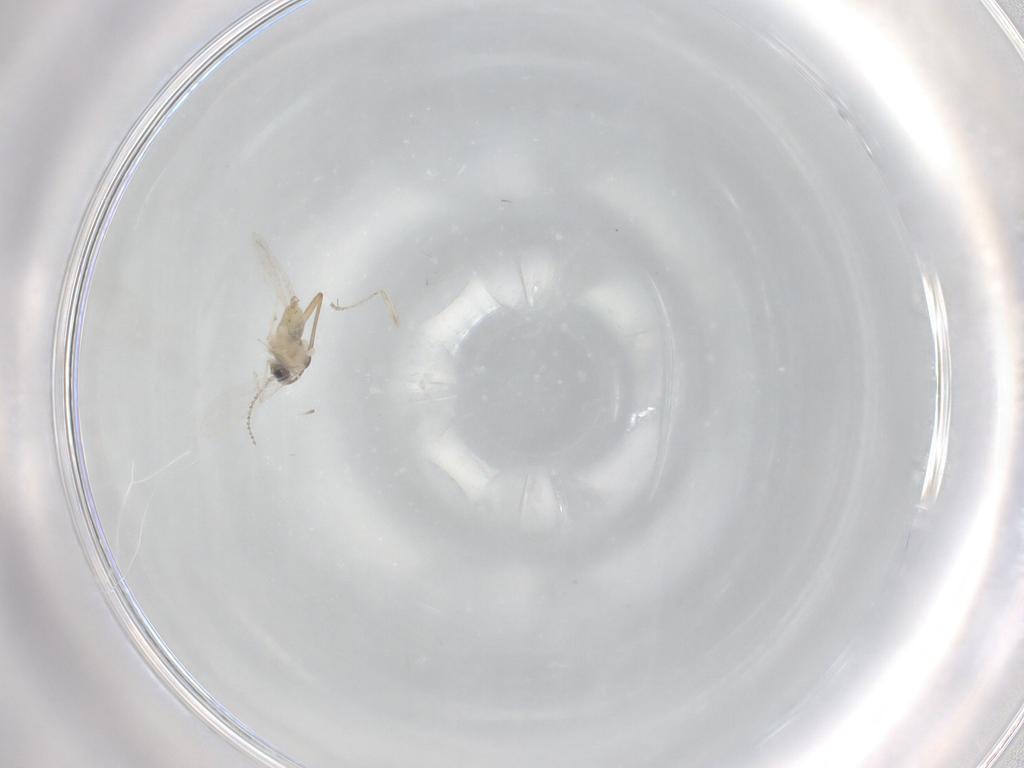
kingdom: Animalia
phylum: Arthropoda
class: Insecta
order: Diptera
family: Cecidomyiidae
